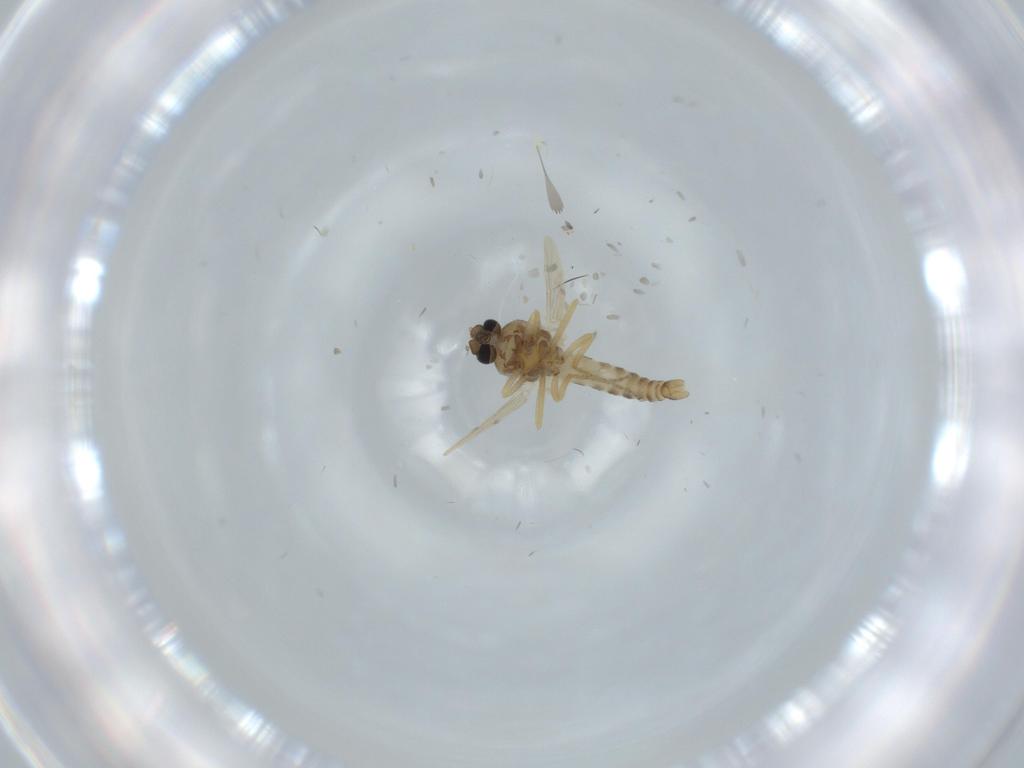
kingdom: Animalia
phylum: Arthropoda
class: Insecta
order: Diptera
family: Ceratopogonidae
